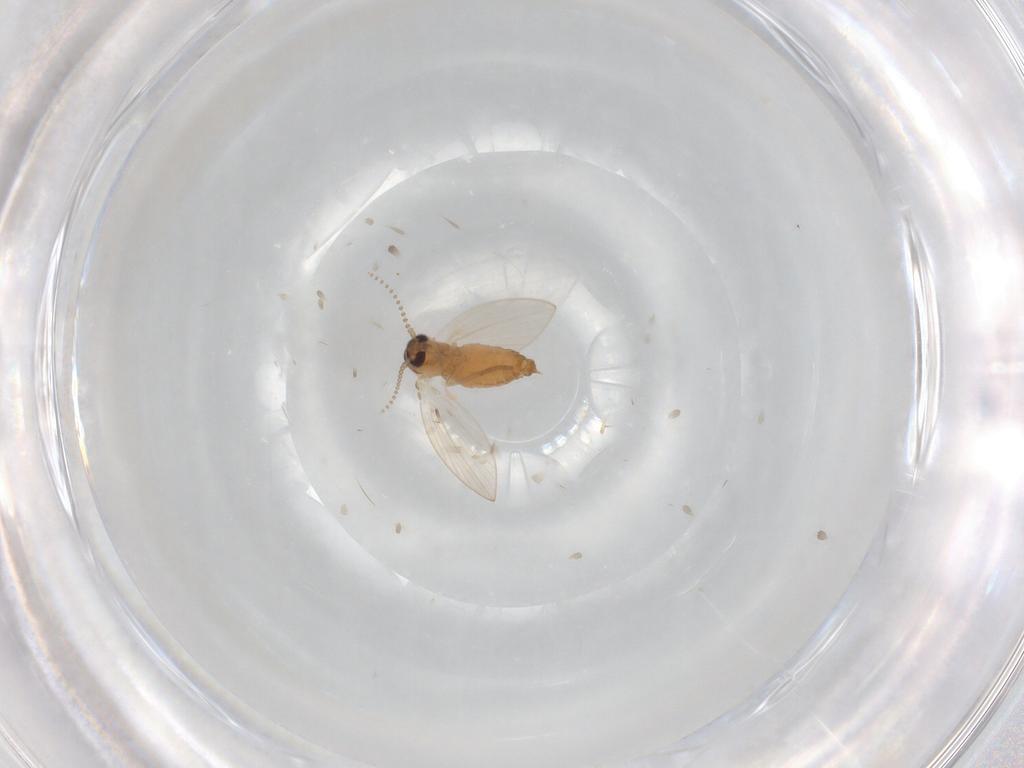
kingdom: Animalia
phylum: Arthropoda
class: Insecta
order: Diptera
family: Psychodidae
